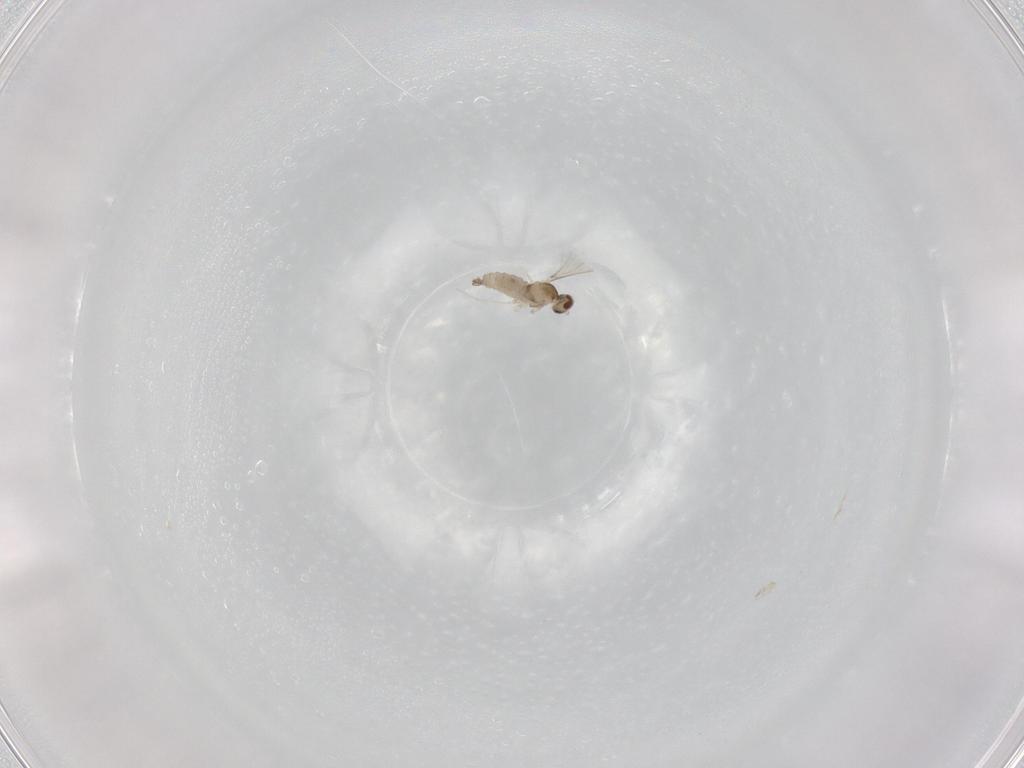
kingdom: Animalia
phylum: Arthropoda
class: Insecta
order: Diptera
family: Cecidomyiidae
